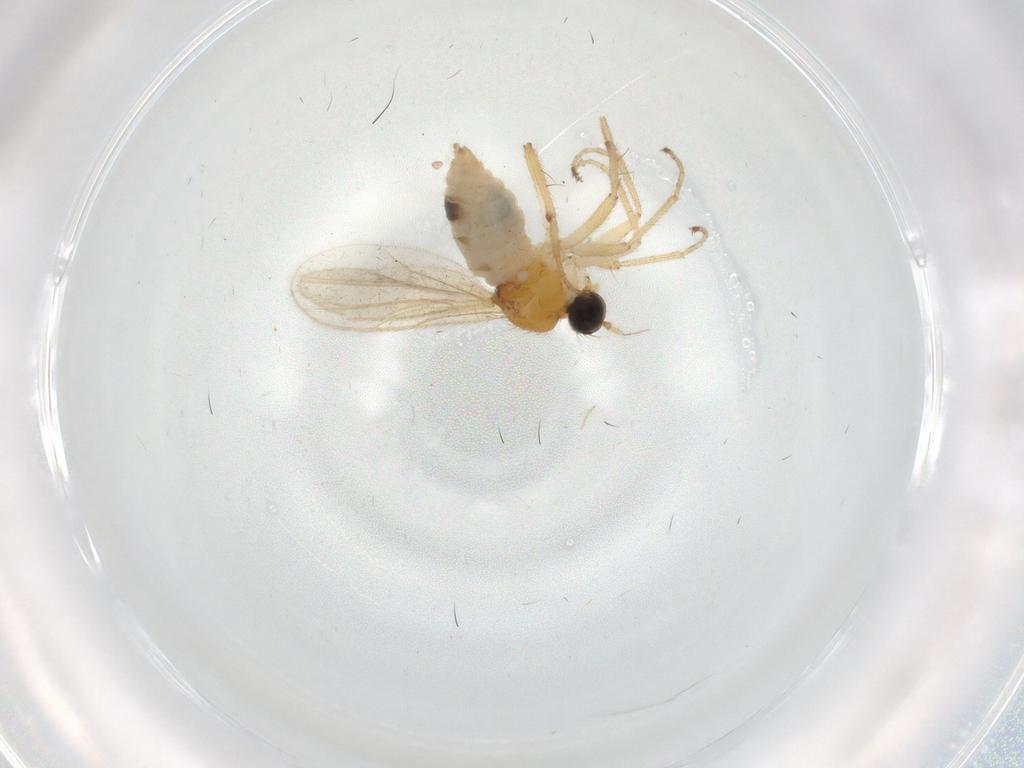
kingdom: Animalia
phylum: Arthropoda
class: Insecta
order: Diptera
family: Hybotidae
